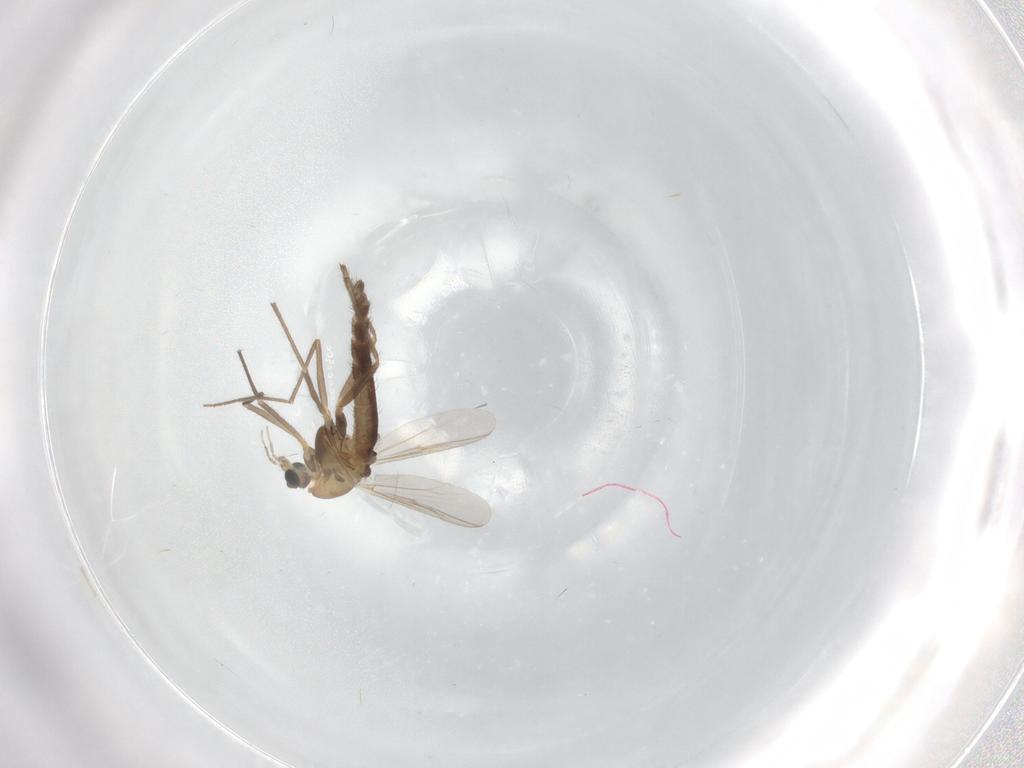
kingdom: Animalia
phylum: Arthropoda
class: Insecta
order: Diptera
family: Chironomidae
